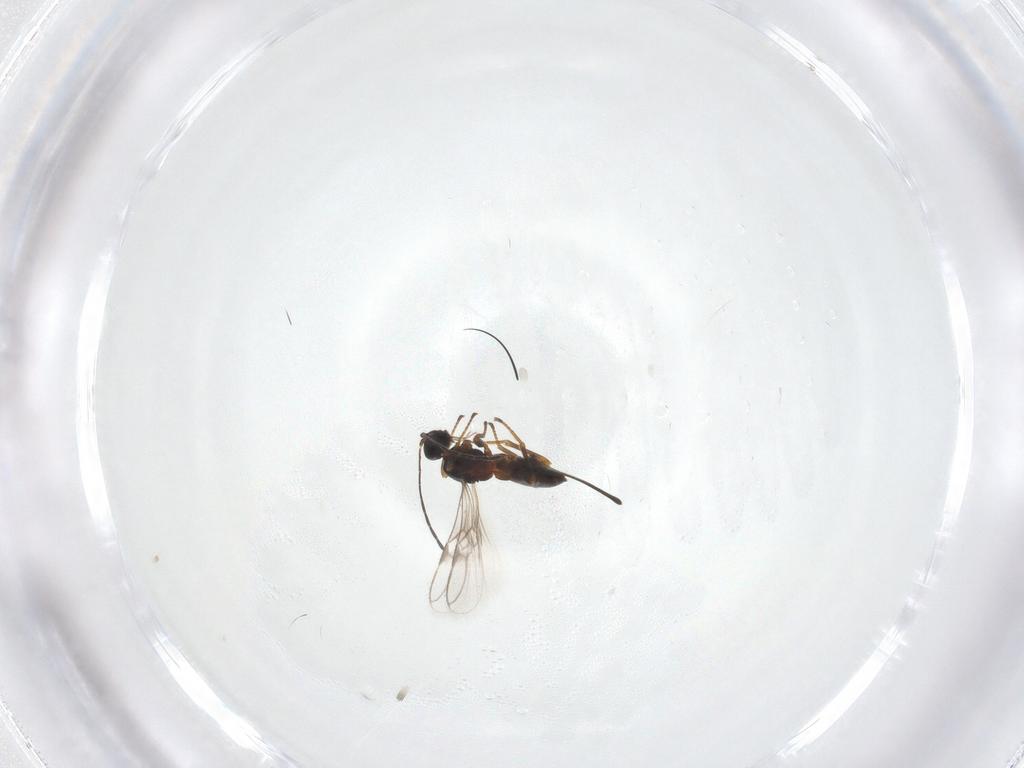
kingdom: Animalia
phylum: Arthropoda
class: Insecta
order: Hymenoptera
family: Braconidae
